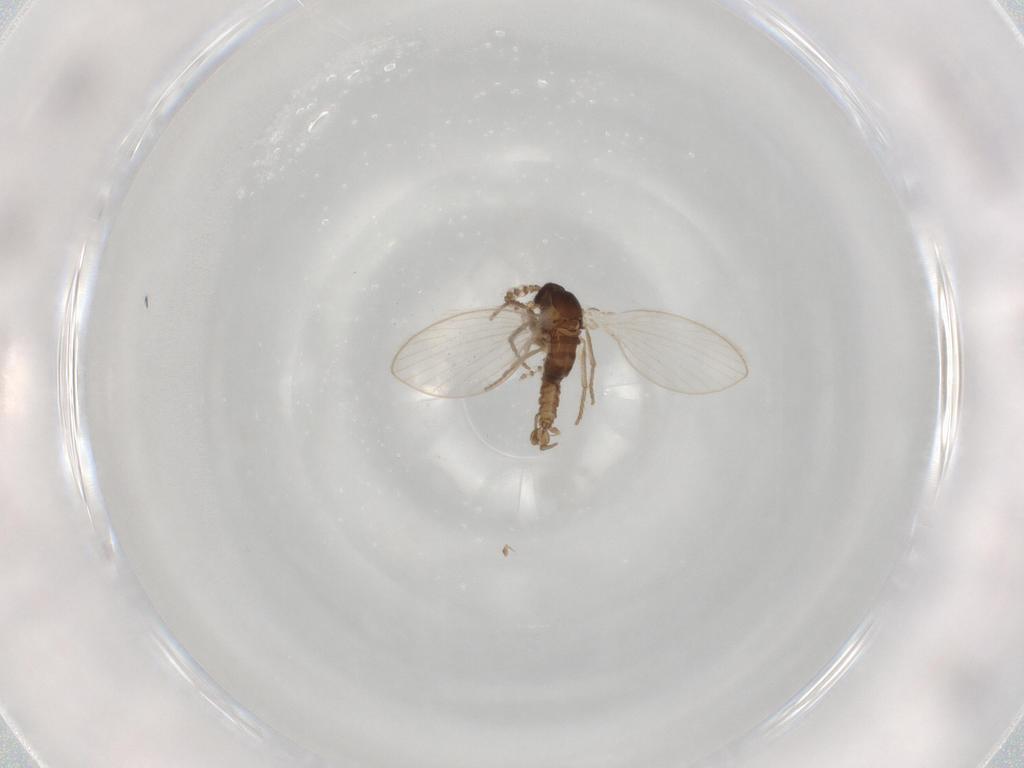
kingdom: Animalia
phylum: Arthropoda
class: Insecta
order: Diptera
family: Psychodidae
